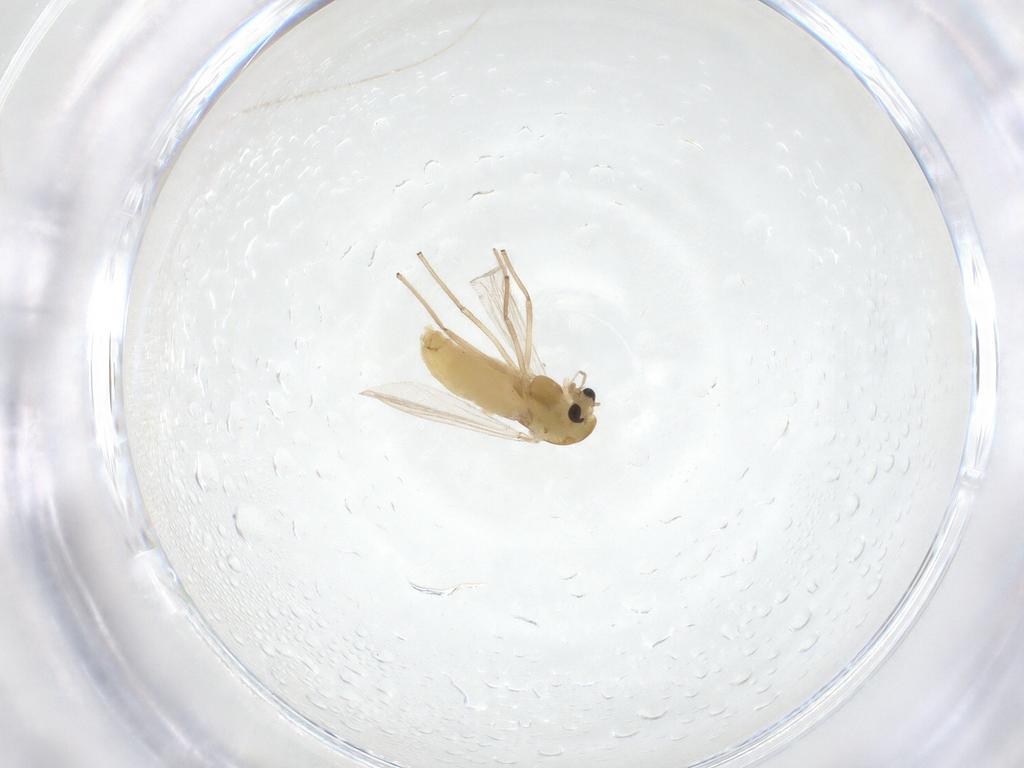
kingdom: Animalia
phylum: Arthropoda
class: Insecta
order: Diptera
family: Chironomidae
